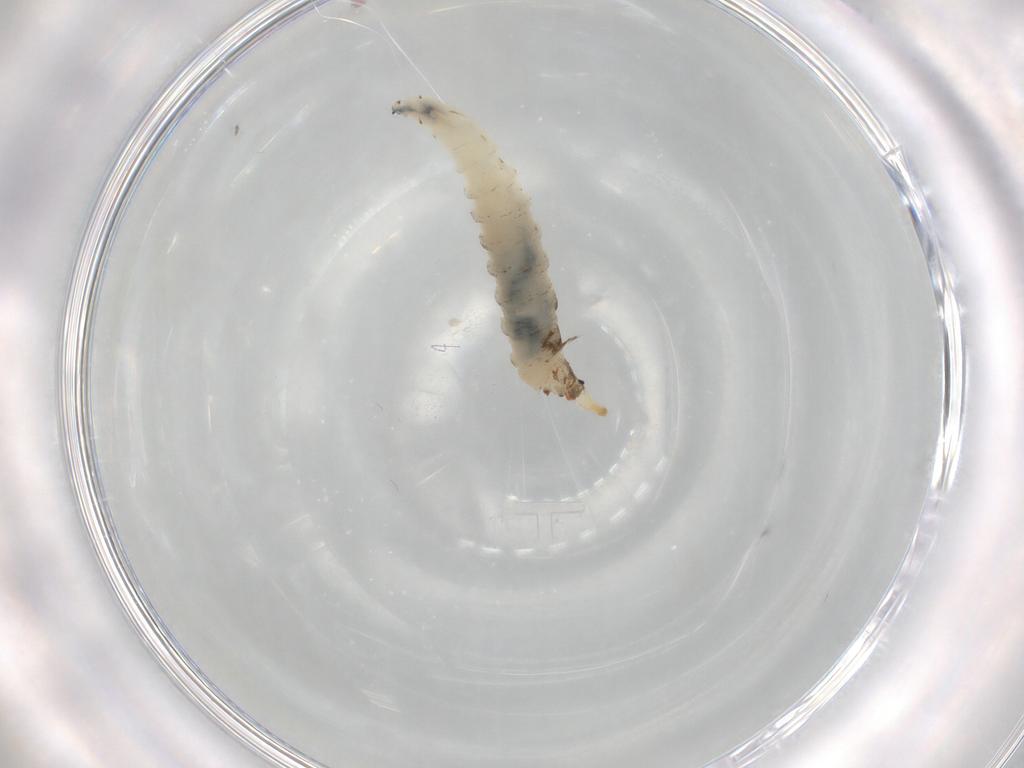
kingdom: Animalia
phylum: Arthropoda
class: Insecta
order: Diptera
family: Drosophilidae
